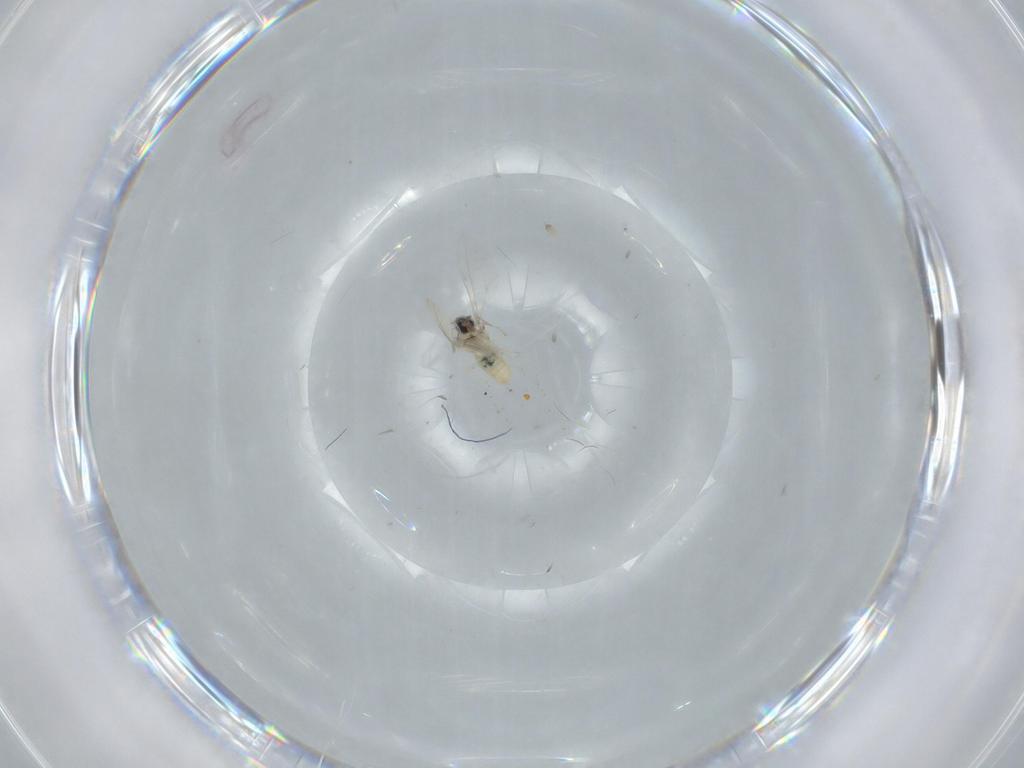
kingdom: Animalia
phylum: Arthropoda
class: Insecta
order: Diptera
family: Cecidomyiidae
